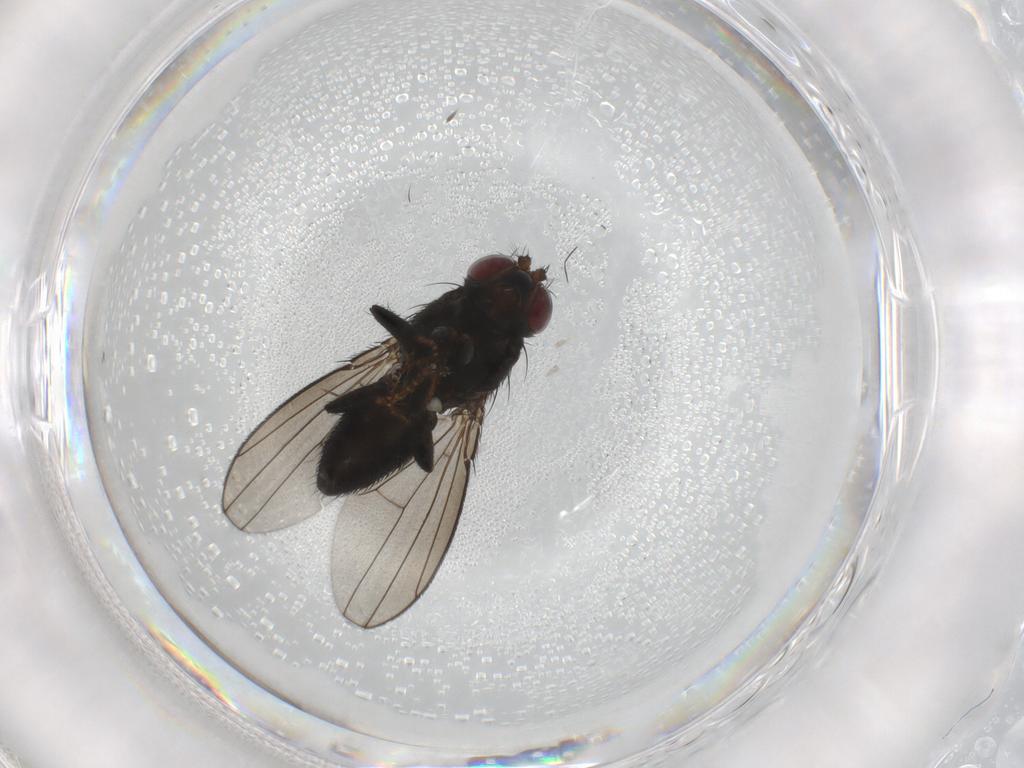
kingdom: Animalia
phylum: Arthropoda
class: Insecta
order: Diptera
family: Ephydridae
